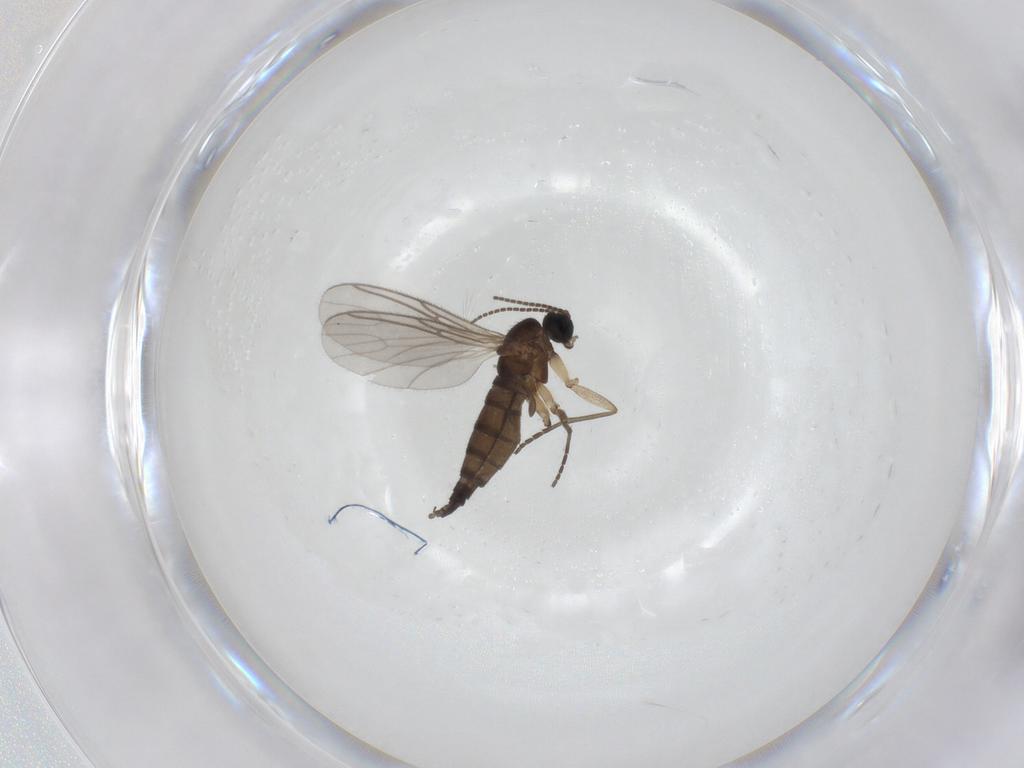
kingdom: Animalia
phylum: Arthropoda
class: Insecta
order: Diptera
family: Sciaridae
